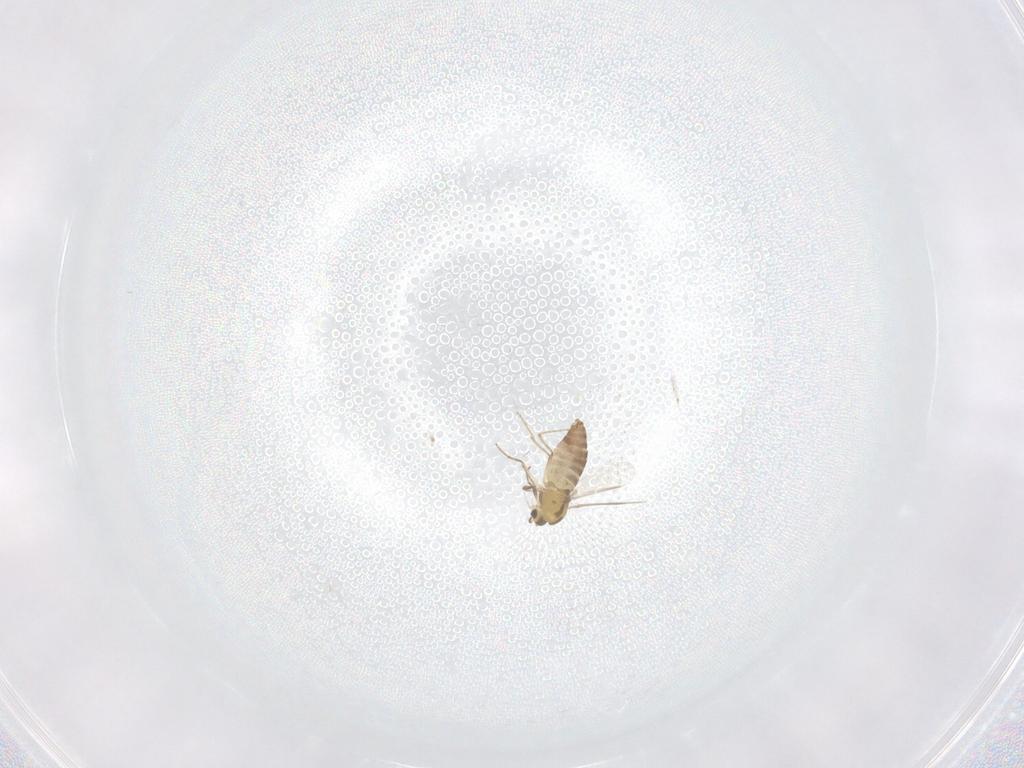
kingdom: Animalia
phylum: Arthropoda
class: Insecta
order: Diptera
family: Chironomidae
